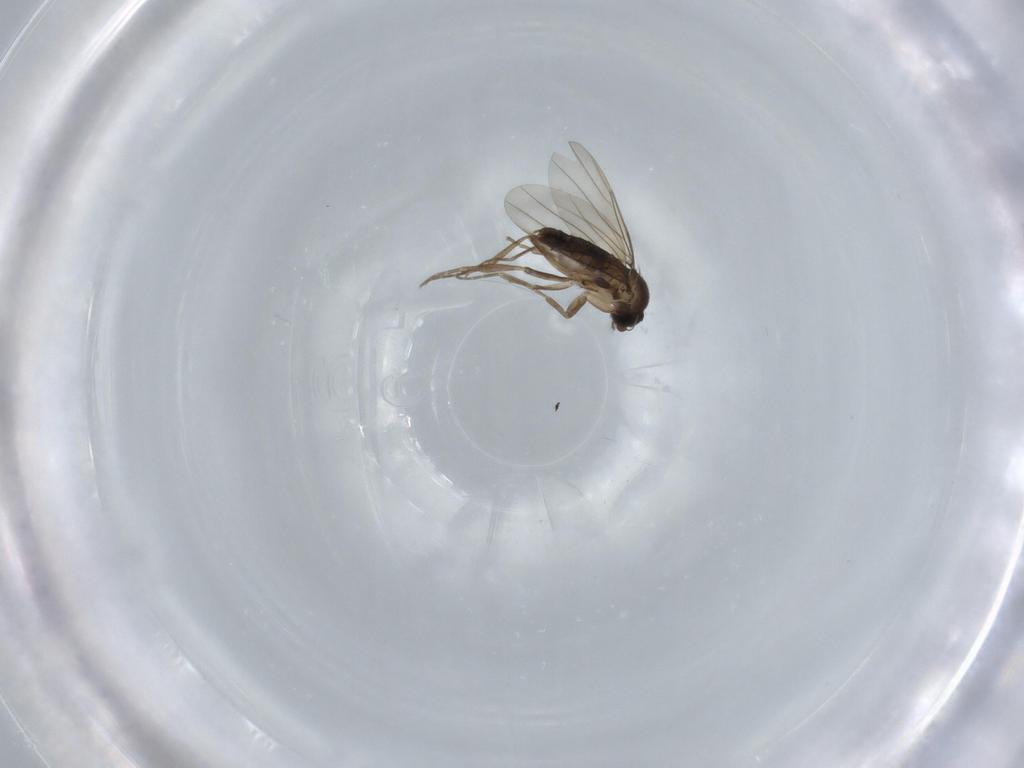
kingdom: Animalia
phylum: Arthropoda
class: Insecta
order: Diptera
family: Phoridae
